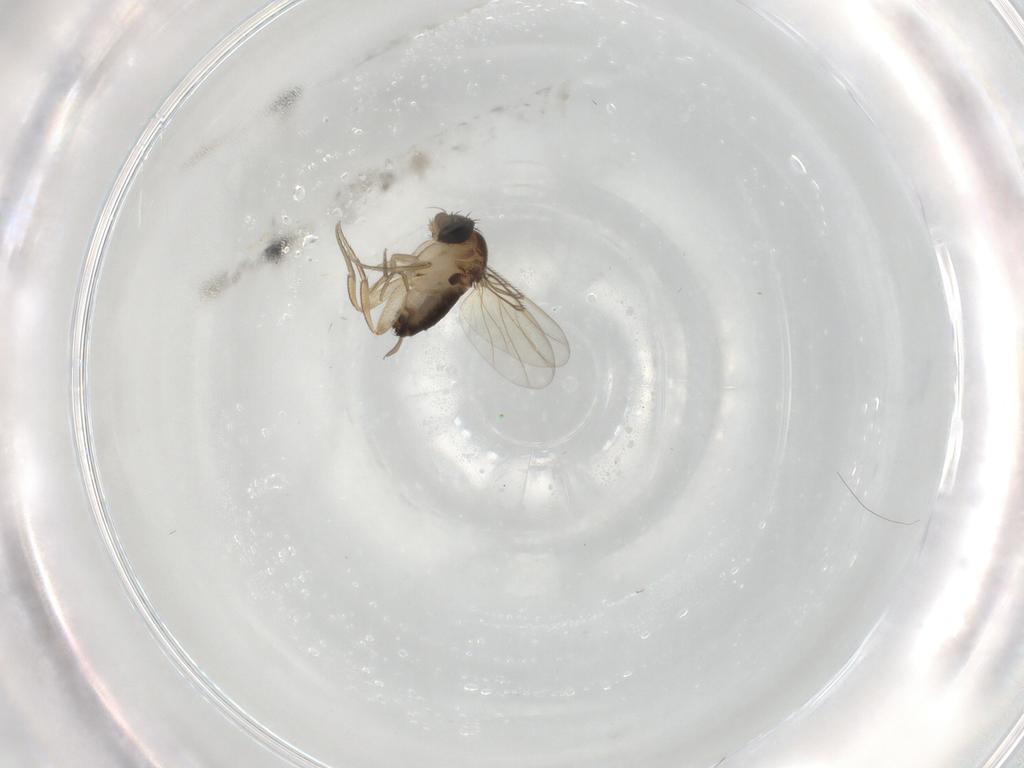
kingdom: Animalia
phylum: Arthropoda
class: Insecta
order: Diptera
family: Phoridae
